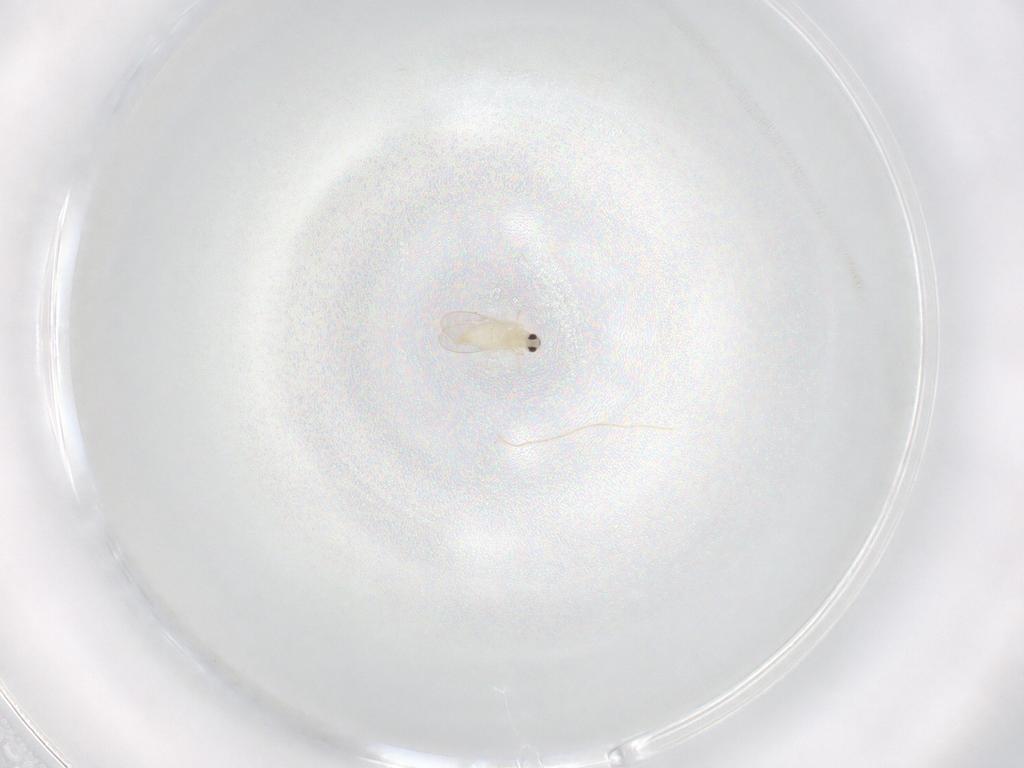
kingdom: Animalia
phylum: Arthropoda
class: Insecta
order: Diptera
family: Cecidomyiidae
